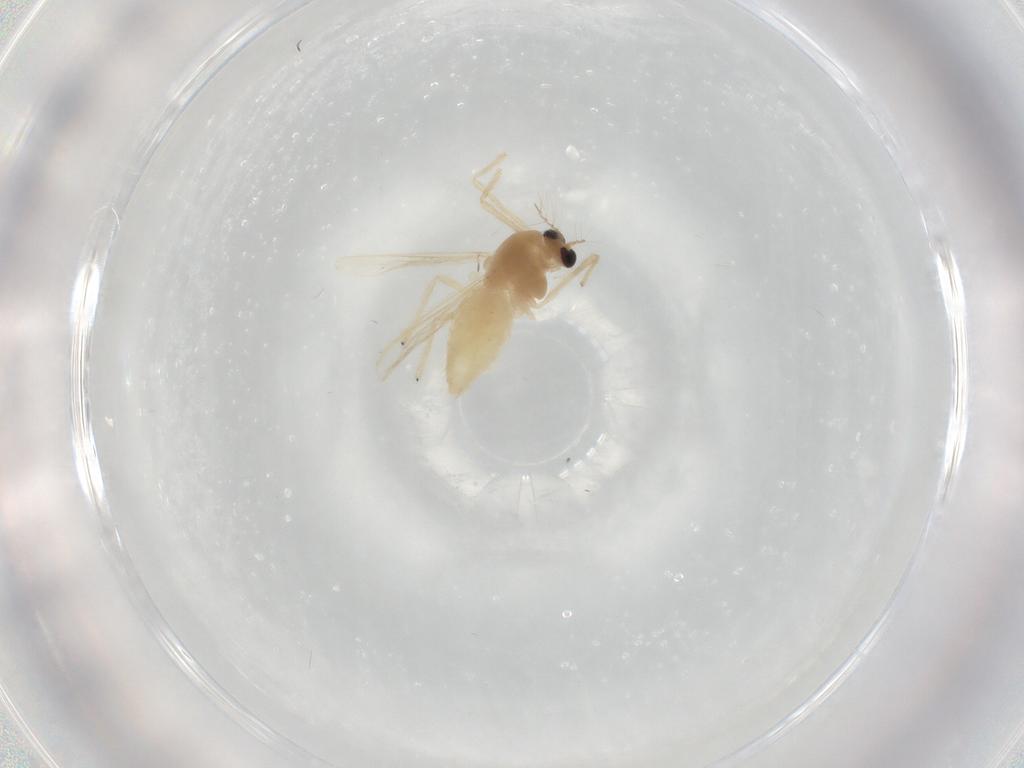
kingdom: Animalia
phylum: Arthropoda
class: Insecta
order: Diptera
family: Chironomidae
